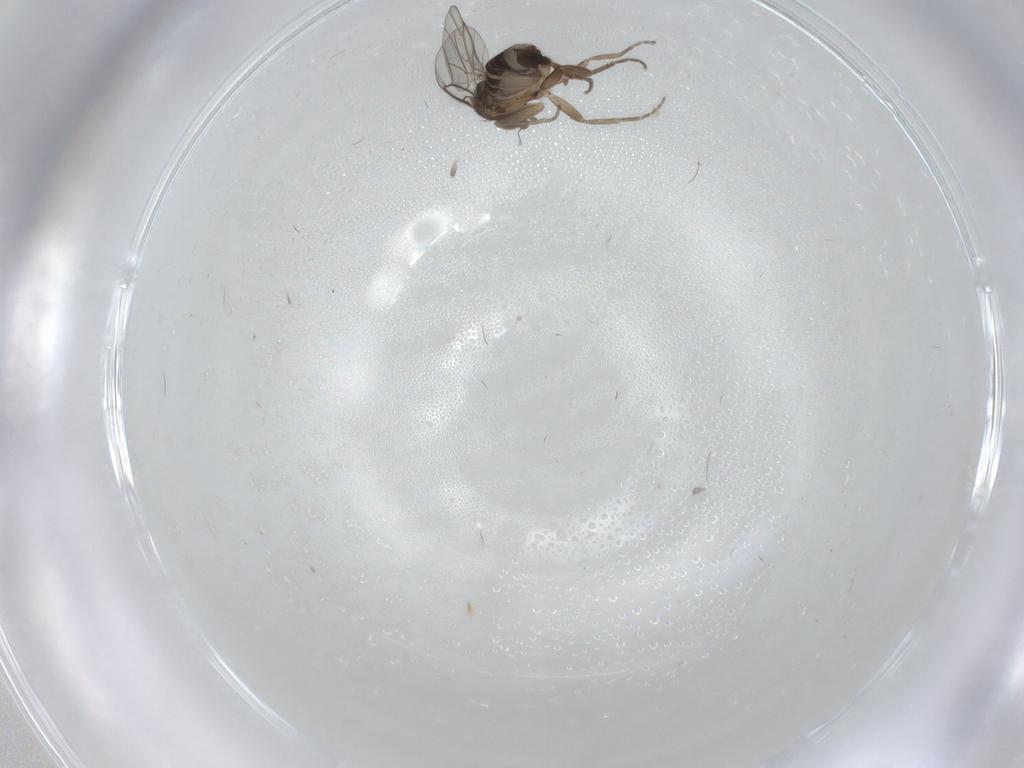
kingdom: Animalia
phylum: Arthropoda
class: Insecta
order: Diptera
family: Phoridae
